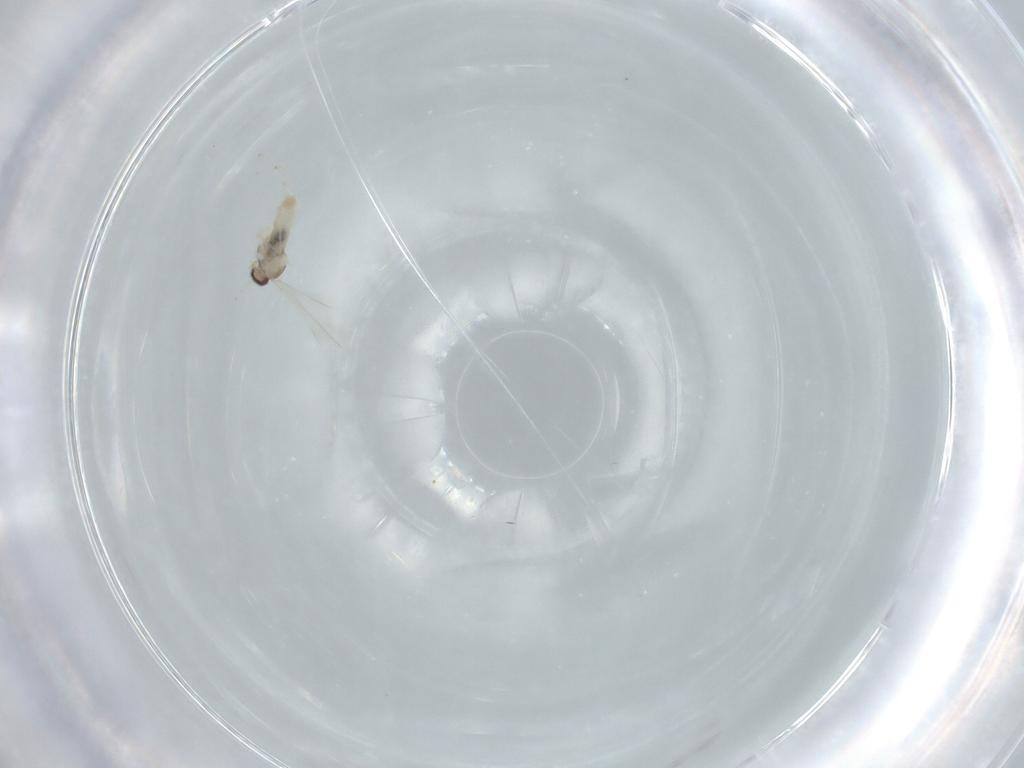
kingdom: Animalia
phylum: Arthropoda
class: Insecta
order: Diptera
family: Cecidomyiidae
